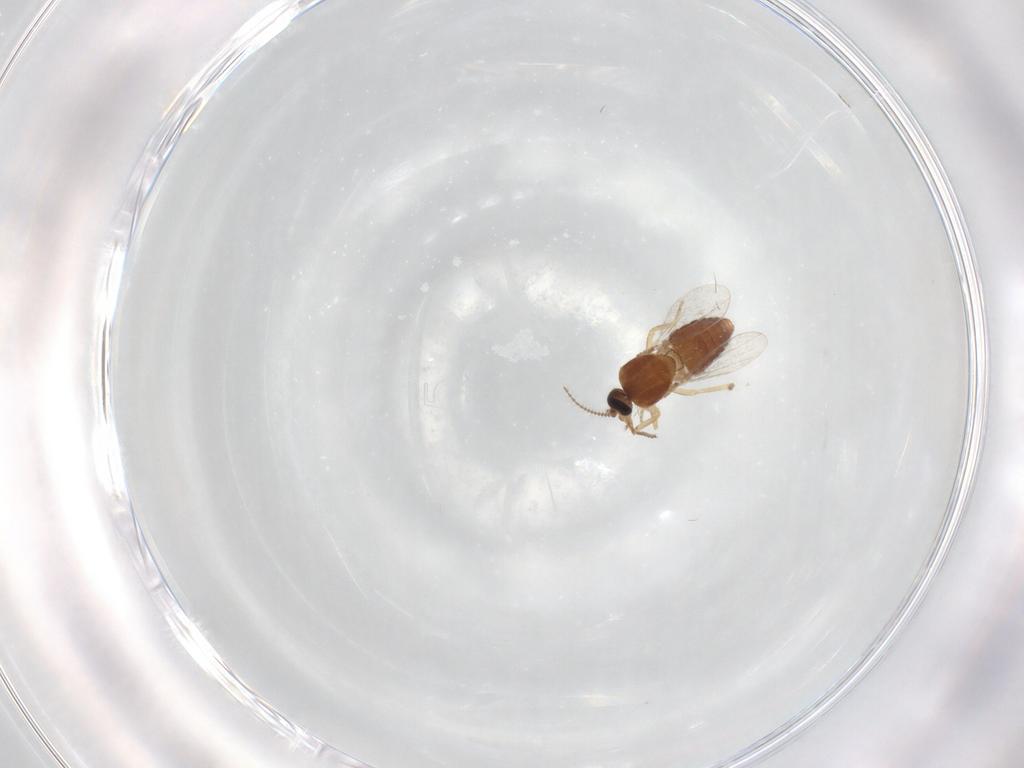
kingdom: Animalia
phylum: Arthropoda
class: Insecta
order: Diptera
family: Ceratopogonidae
